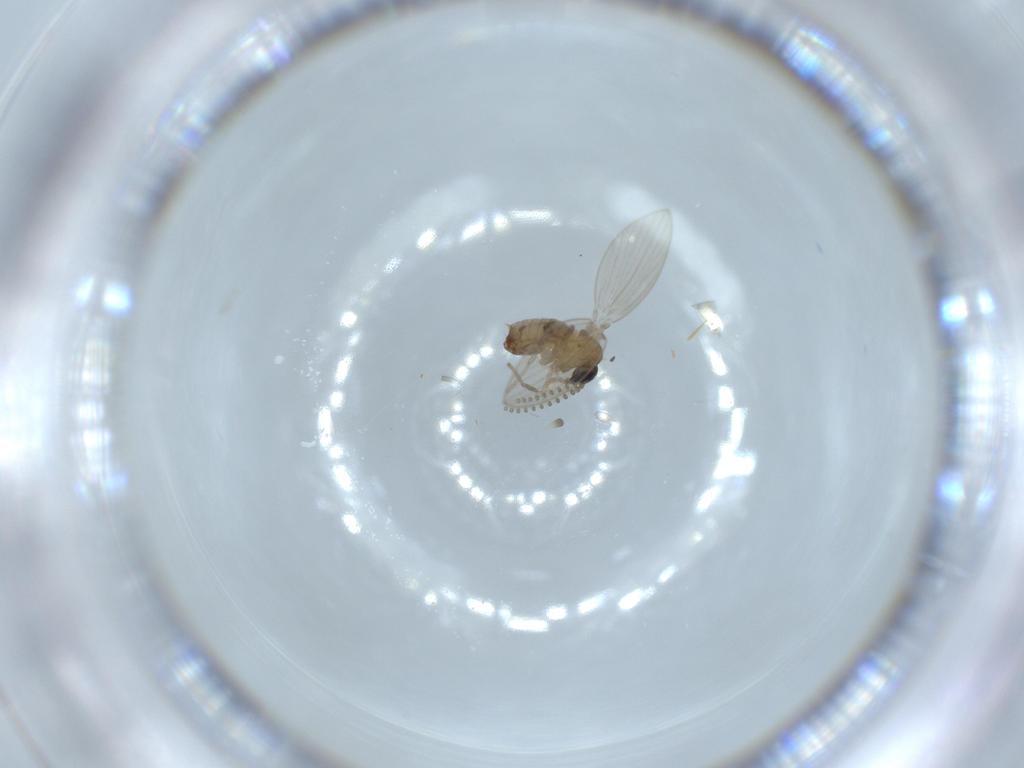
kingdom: Animalia
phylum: Arthropoda
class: Insecta
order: Diptera
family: Psychodidae
